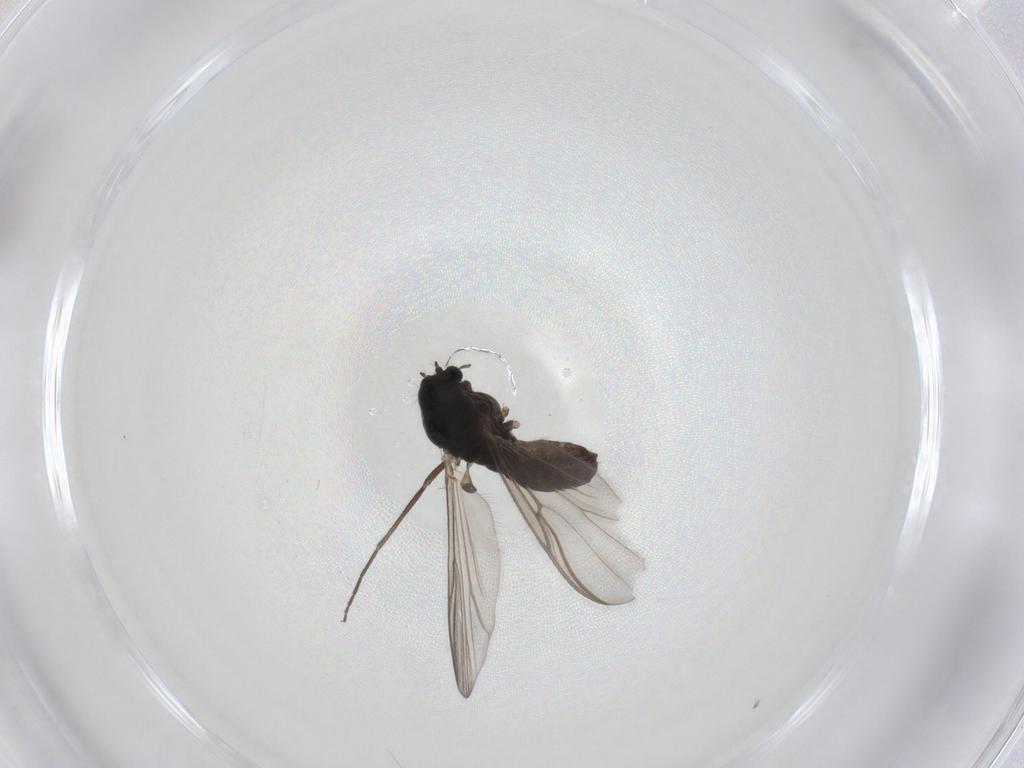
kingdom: Animalia
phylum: Arthropoda
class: Insecta
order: Diptera
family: Chironomidae
